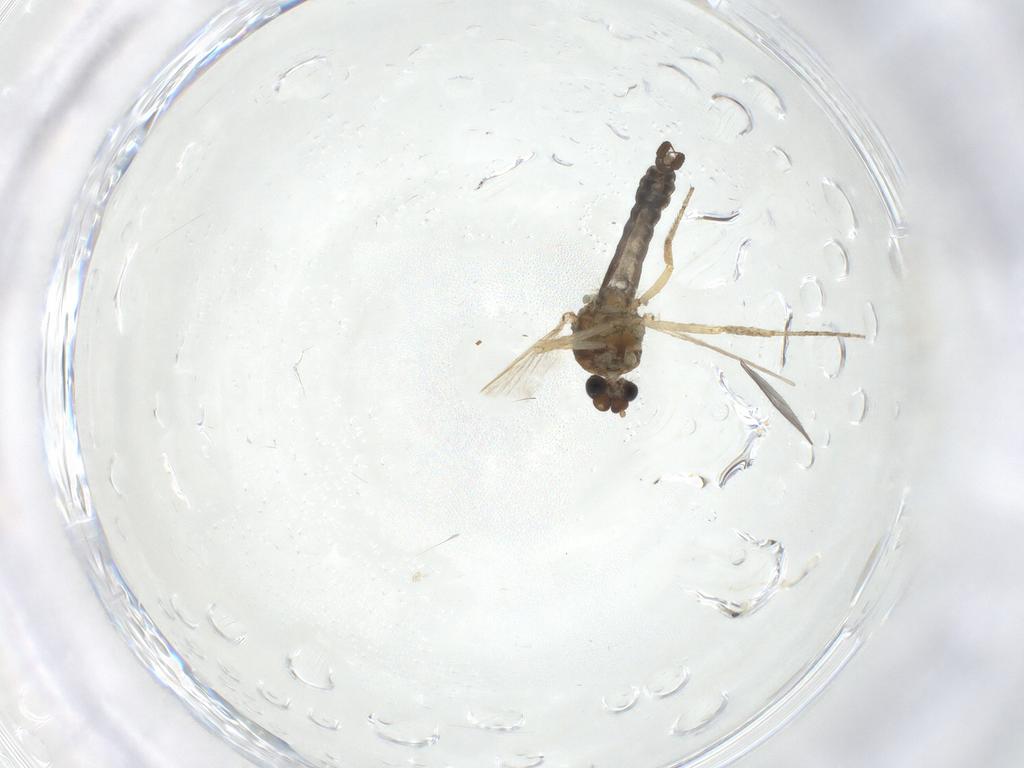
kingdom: Animalia
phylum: Arthropoda
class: Insecta
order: Diptera
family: Ceratopogonidae
